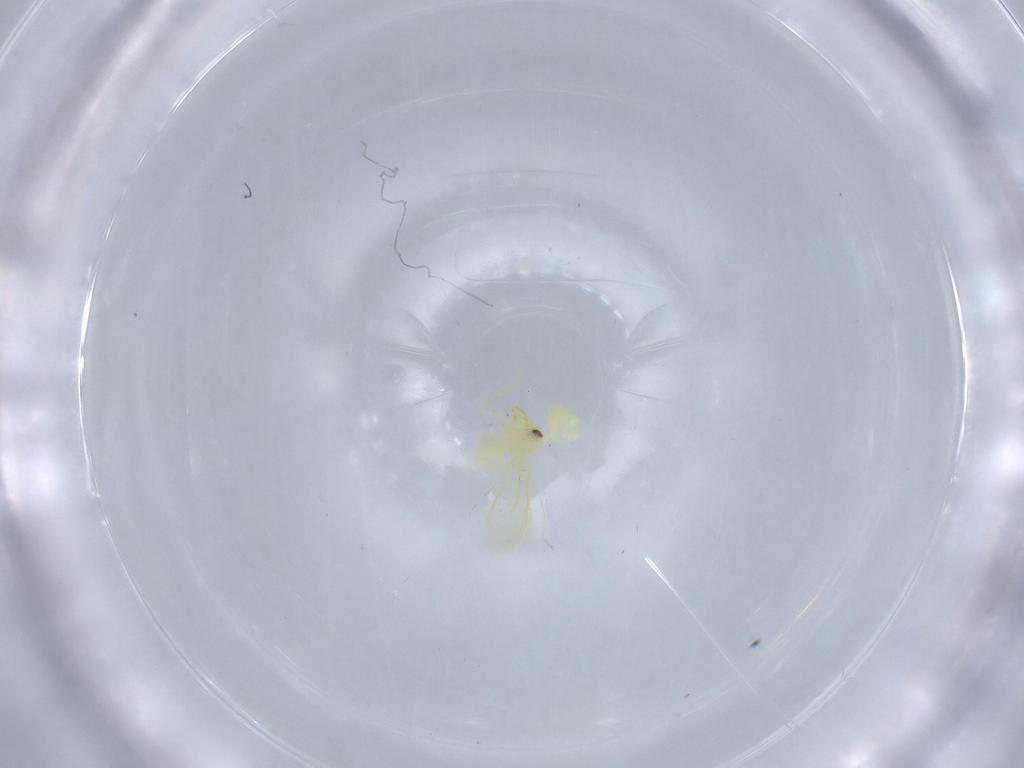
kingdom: Animalia
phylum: Arthropoda
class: Insecta
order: Hemiptera
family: Aleyrodidae
